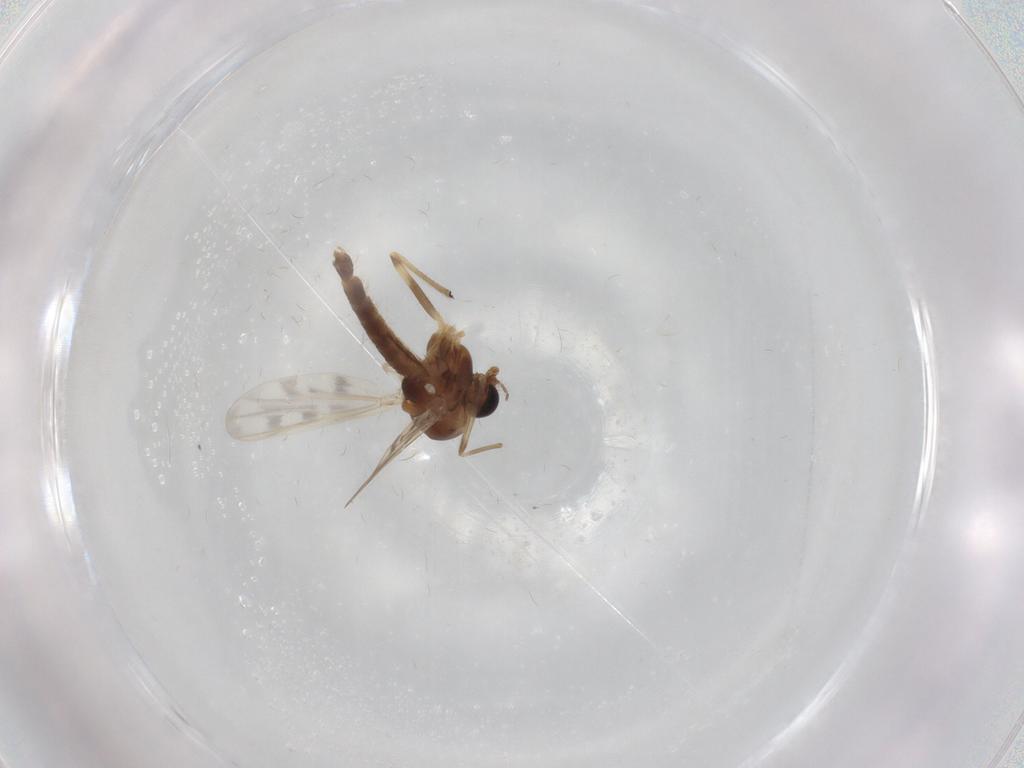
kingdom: Animalia
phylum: Arthropoda
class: Insecta
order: Diptera
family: Chironomidae
